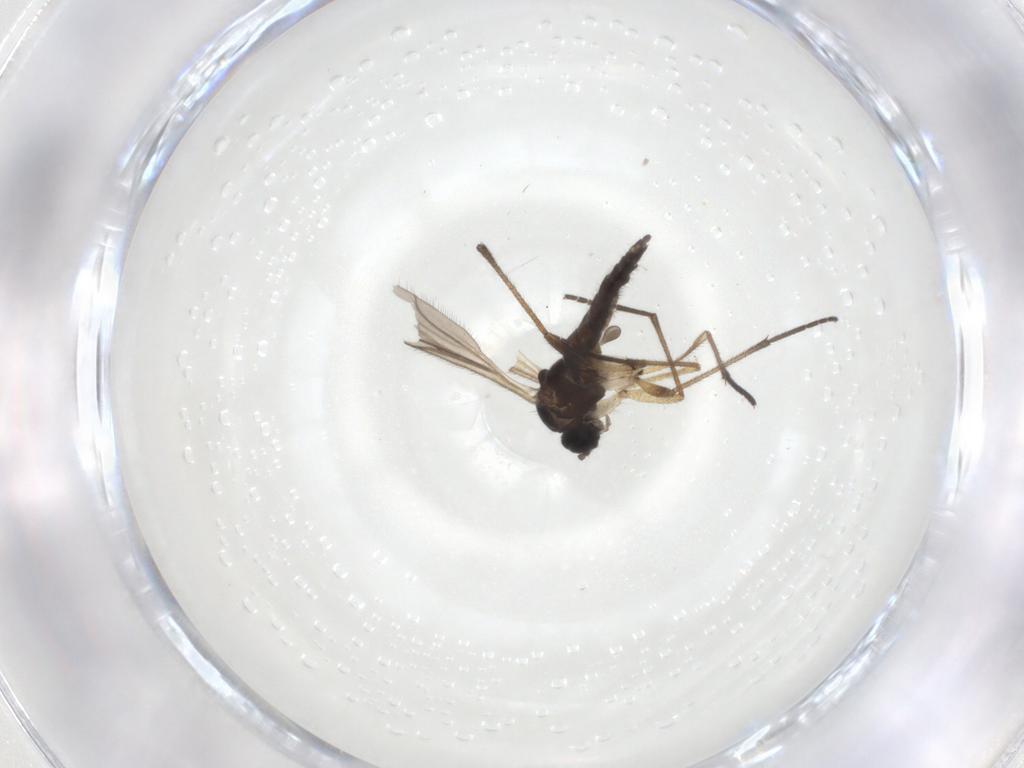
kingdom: Animalia
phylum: Arthropoda
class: Insecta
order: Diptera
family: Sciaridae
